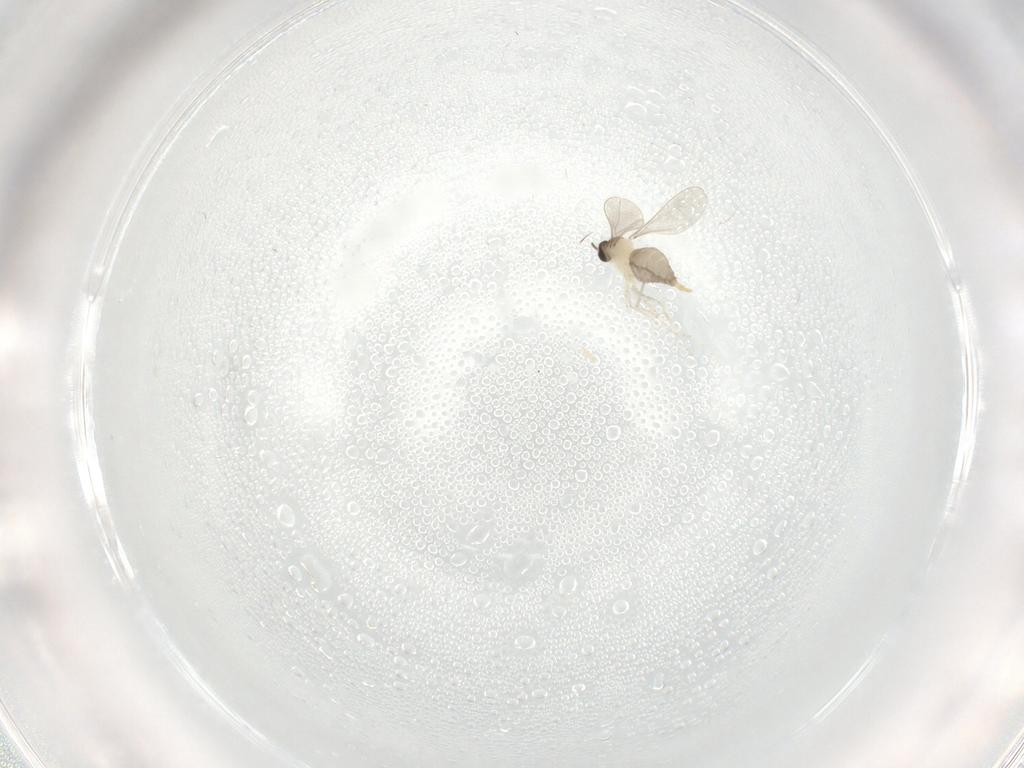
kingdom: Animalia
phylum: Arthropoda
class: Insecta
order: Diptera
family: Cecidomyiidae
